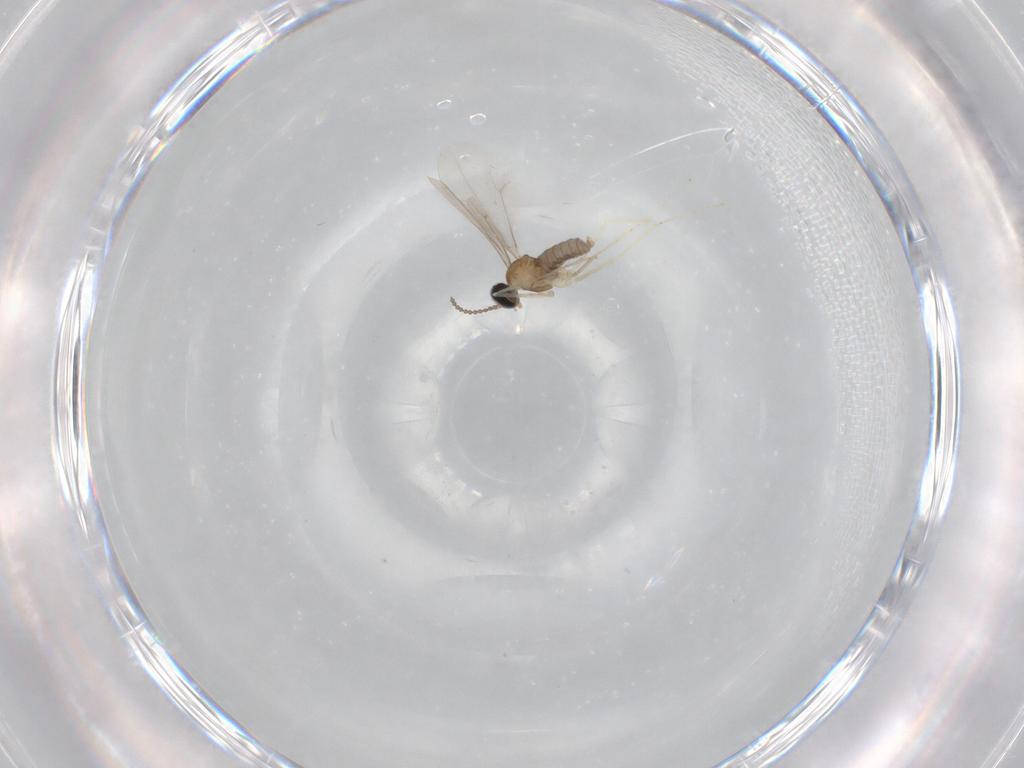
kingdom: Animalia
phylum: Arthropoda
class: Insecta
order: Diptera
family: Cecidomyiidae
